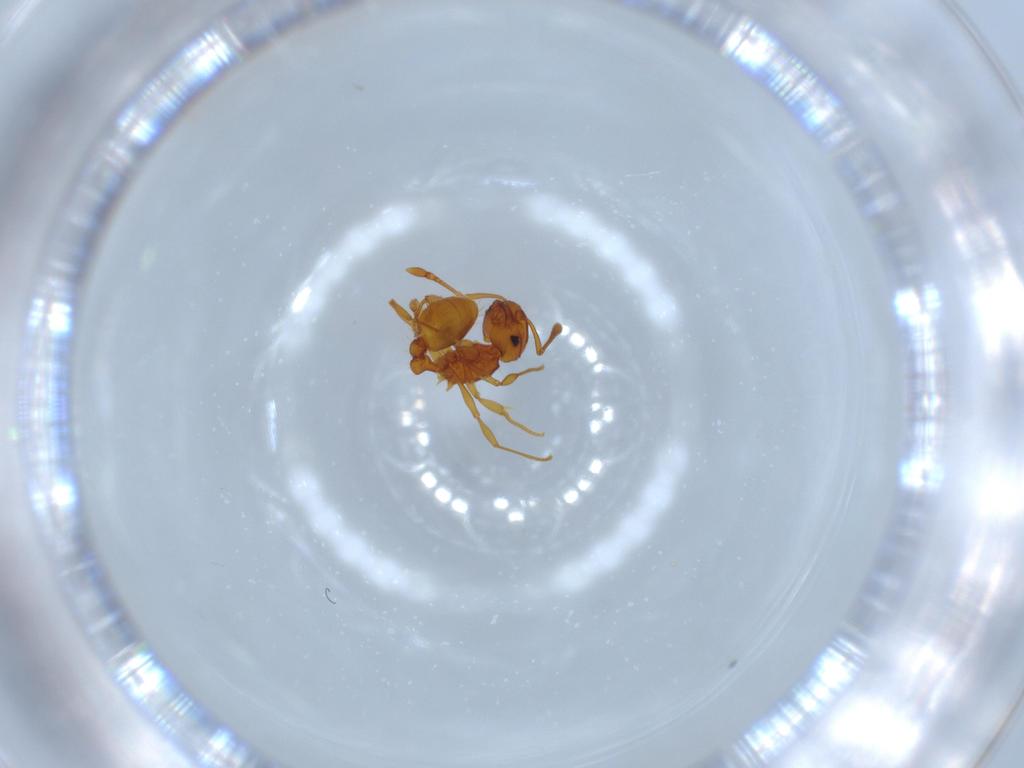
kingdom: Animalia
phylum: Arthropoda
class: Insecta
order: Hymenoptera
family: Formicidae
